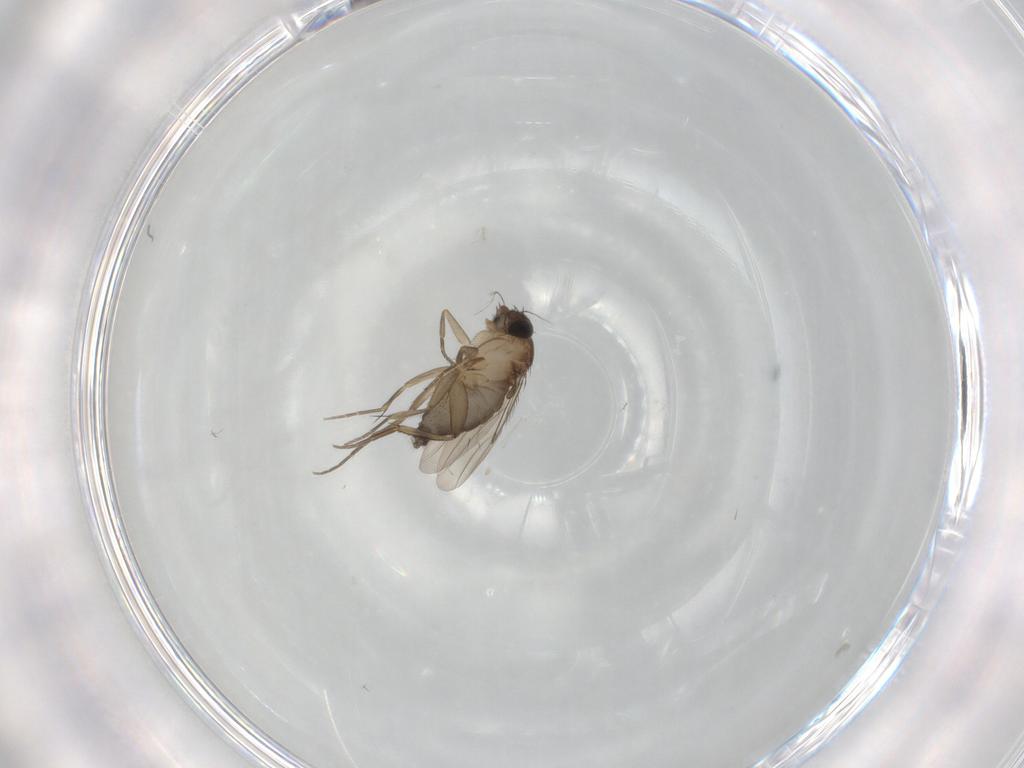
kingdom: Animalia
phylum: Arthropoda
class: Insecta
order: Diptera
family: Phoridae
